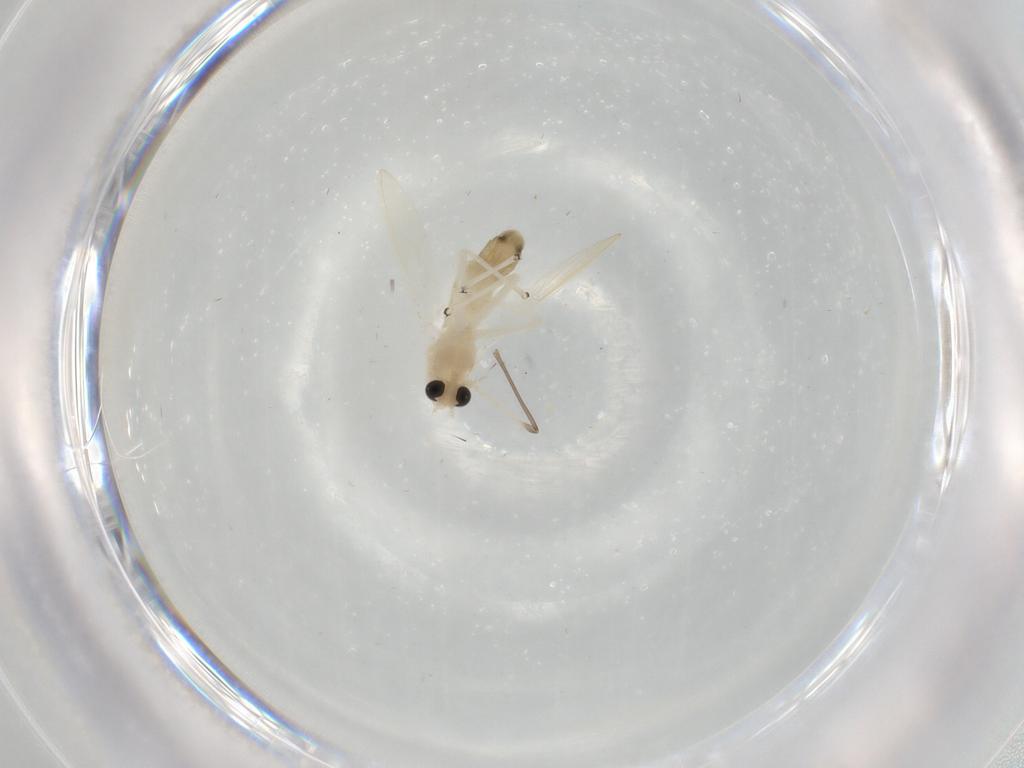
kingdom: Animalia
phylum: Arthropoda
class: Insecta
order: Diptera
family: Chironomidae
